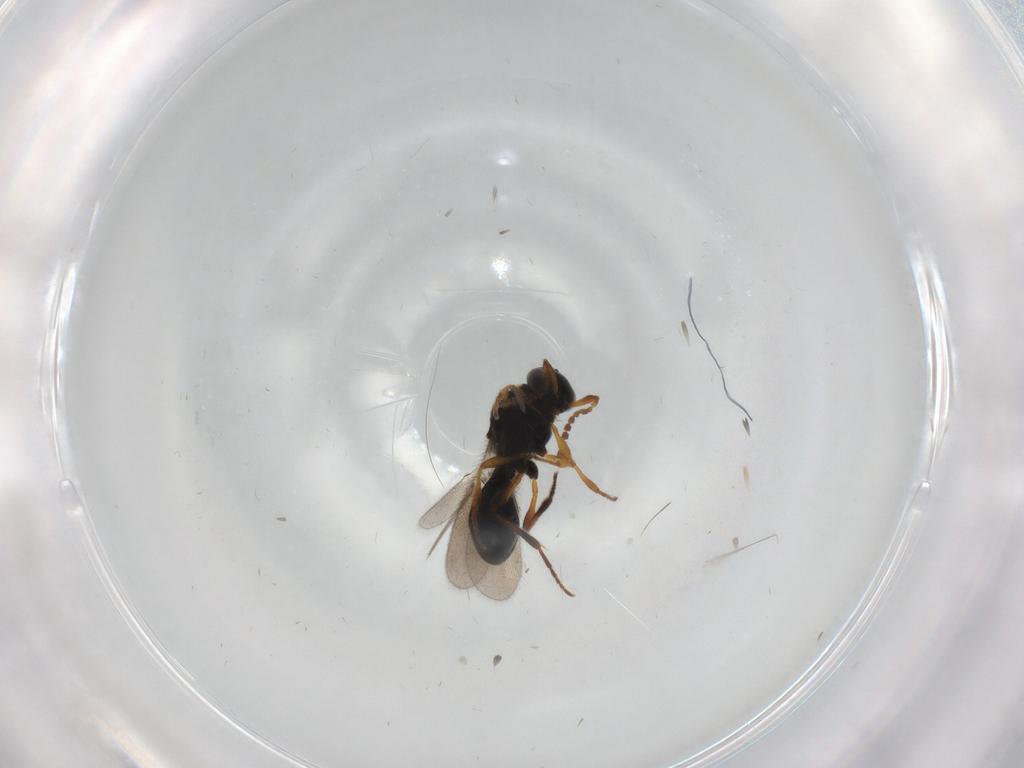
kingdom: Animalia
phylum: Arthropoda
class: Insecta
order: Hymenoptera
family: Platygastridae
